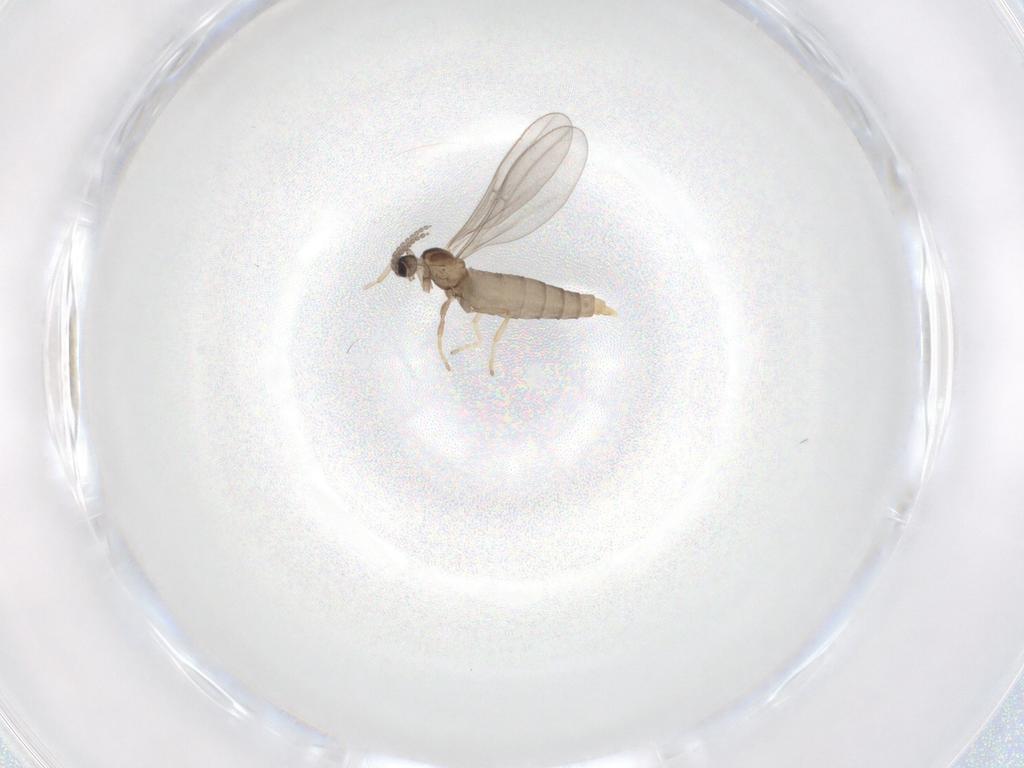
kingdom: Animalia
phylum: Arthropoda
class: Insecta
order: Diptera
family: Cecidomyiidae
